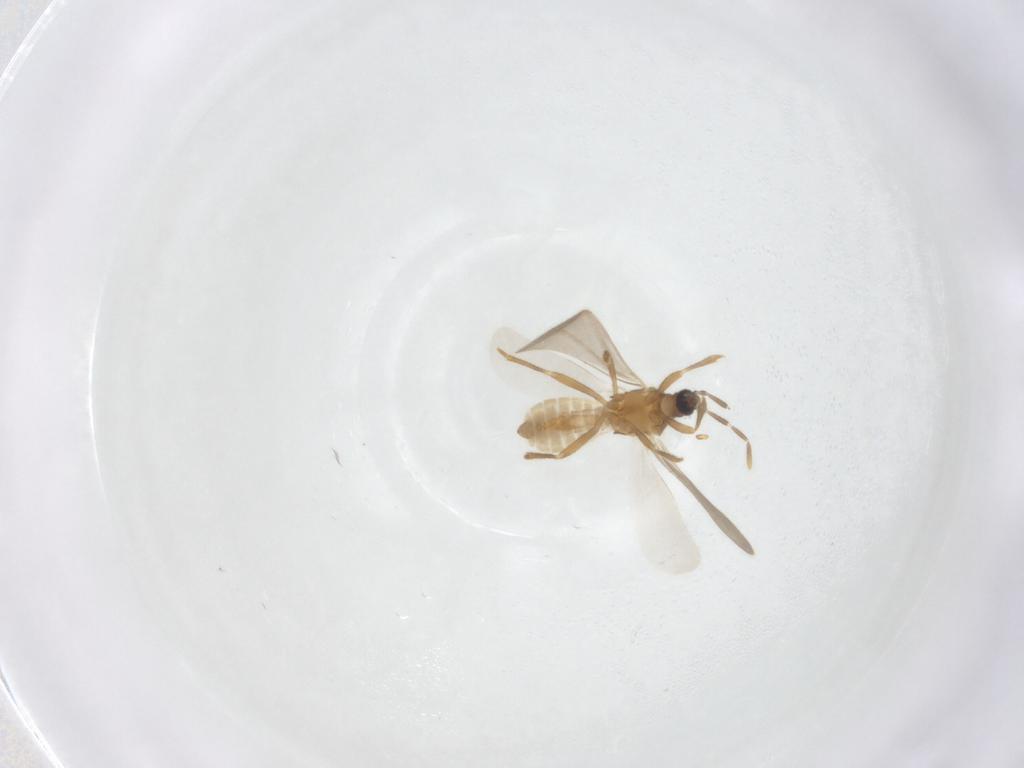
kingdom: Animalia
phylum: Arthropoda
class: Insecta
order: Hemiptera
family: Enicocephalidae
